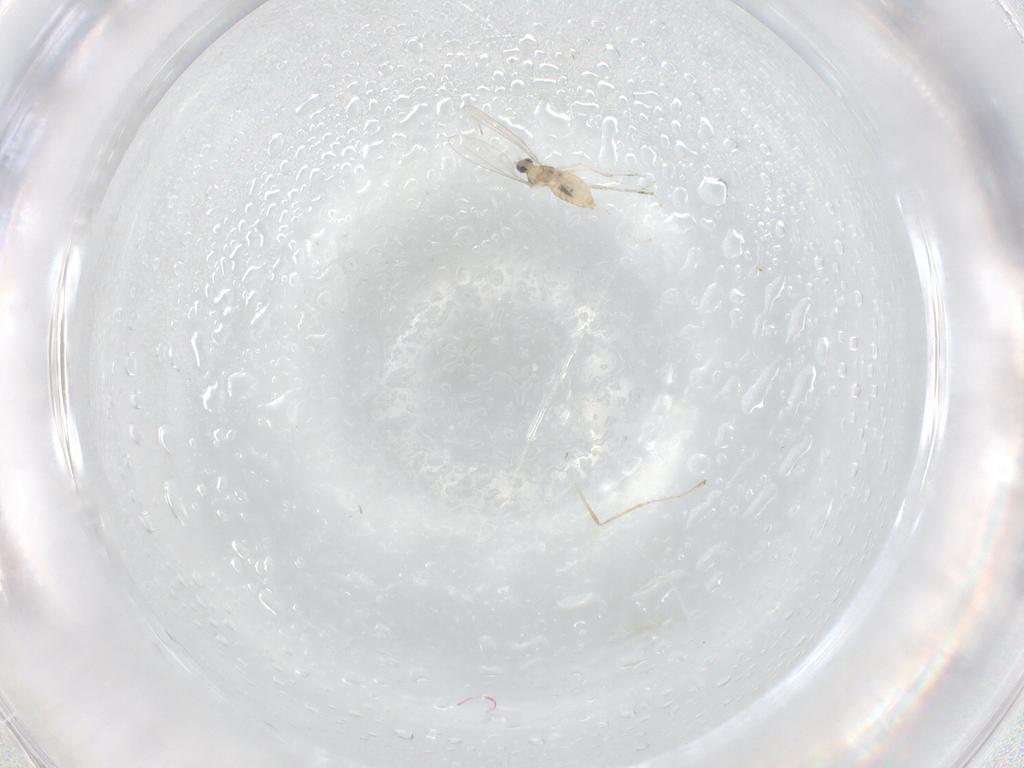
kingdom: Animalia
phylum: Arthropoda
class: Insecta
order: Diptera
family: Cecidomyiidae
